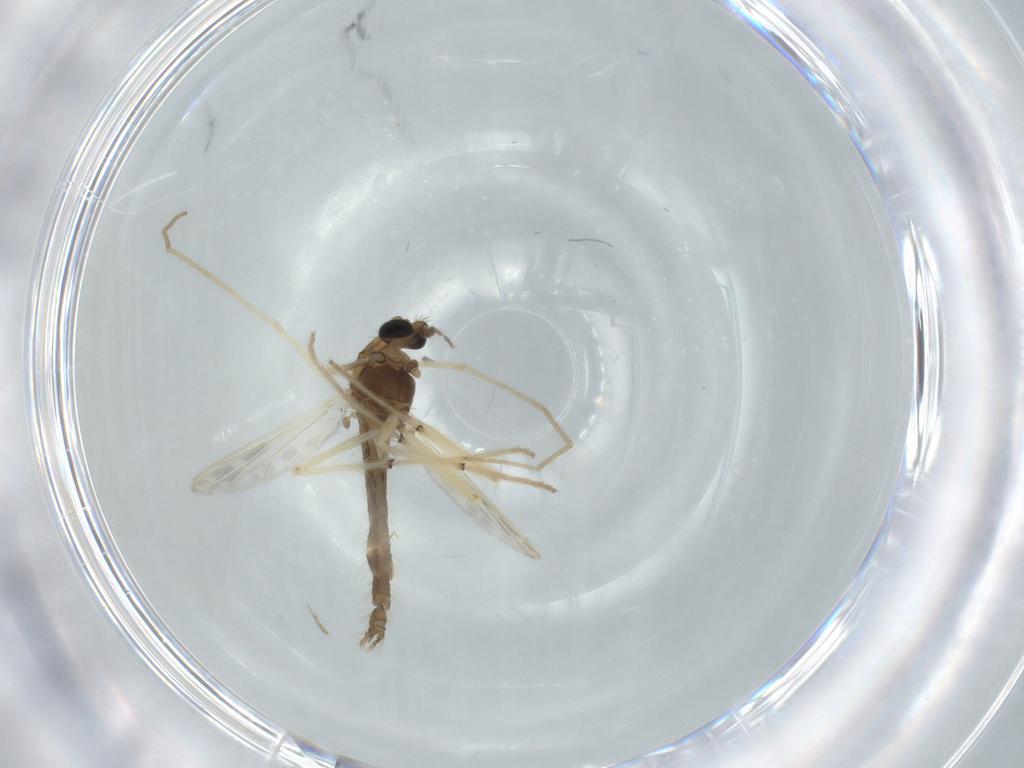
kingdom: Animalia
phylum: Arthropoda
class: Insecta
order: Diptera
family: Chironomidae
